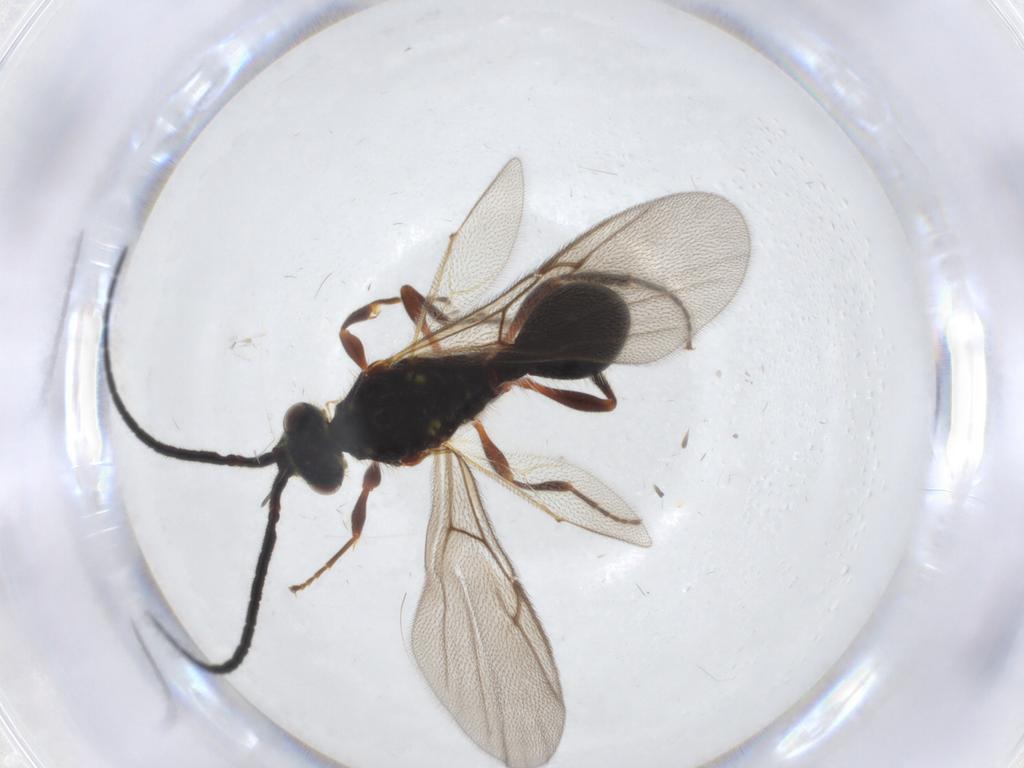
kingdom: Animalia
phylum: Arthropoda
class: Insecta
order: Hymenoptera
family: Diapriidae
